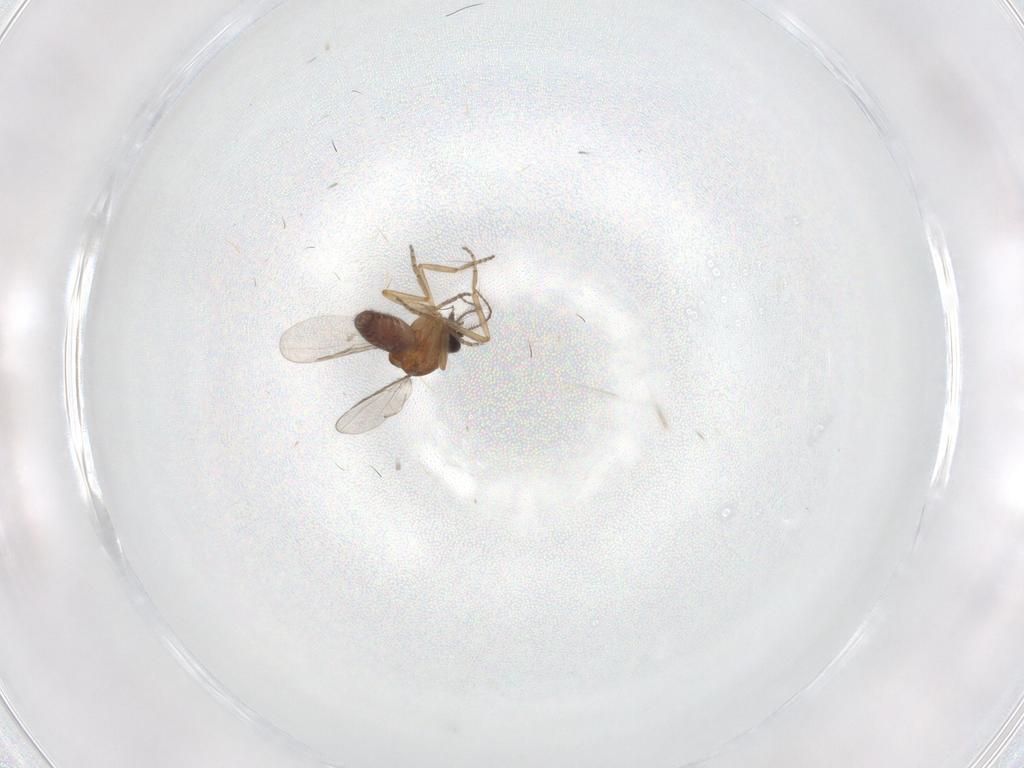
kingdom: Animalia
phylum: Arthropoda
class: Insecta
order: Diptera
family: Ceratopogonidae
